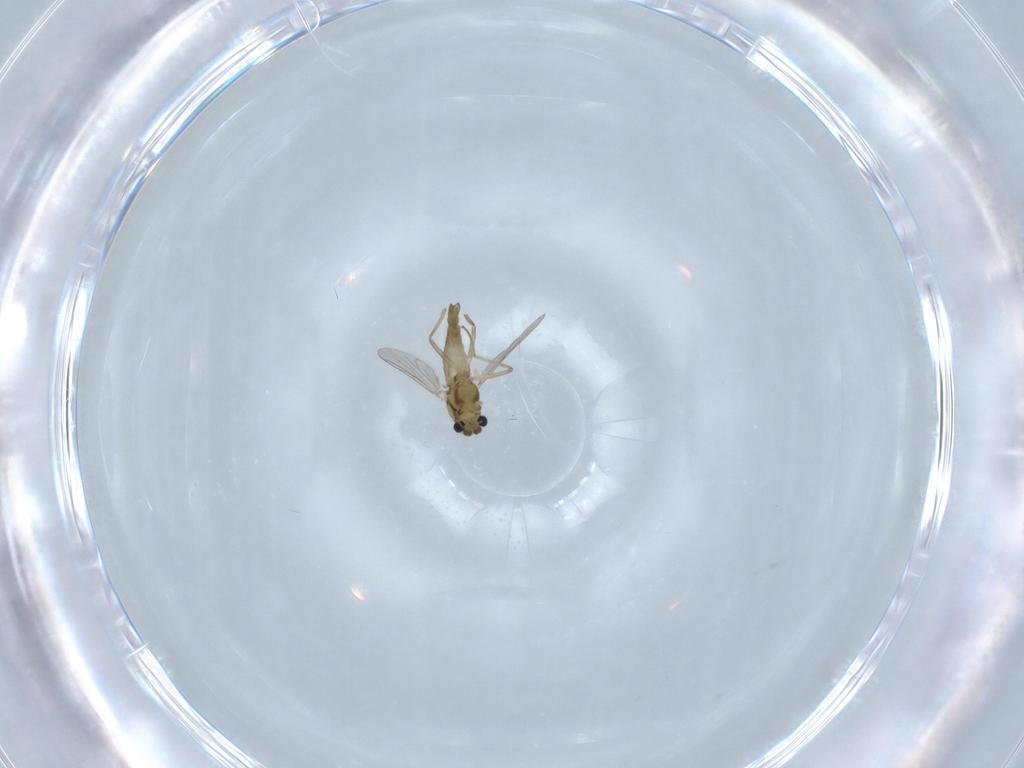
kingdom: Animalia
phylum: Arthropoda
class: Insecta
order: Diptera
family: Chironomidae
